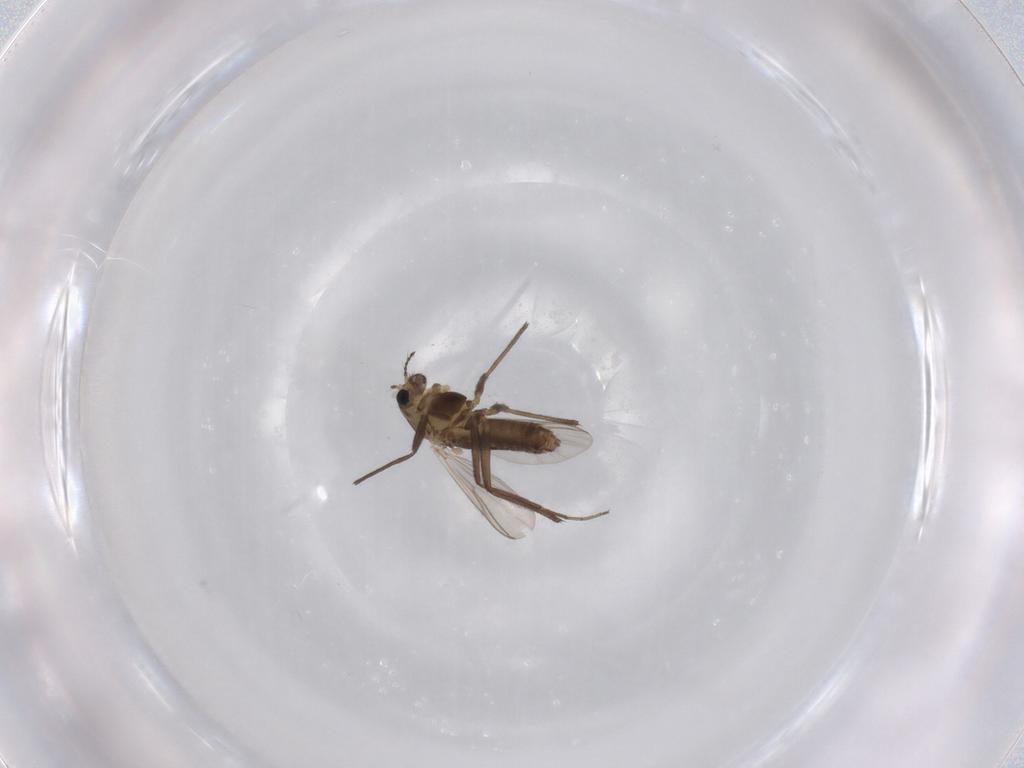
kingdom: Animalia
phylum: Arthropoda
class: Insecta
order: Diptera
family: Chironomidae
